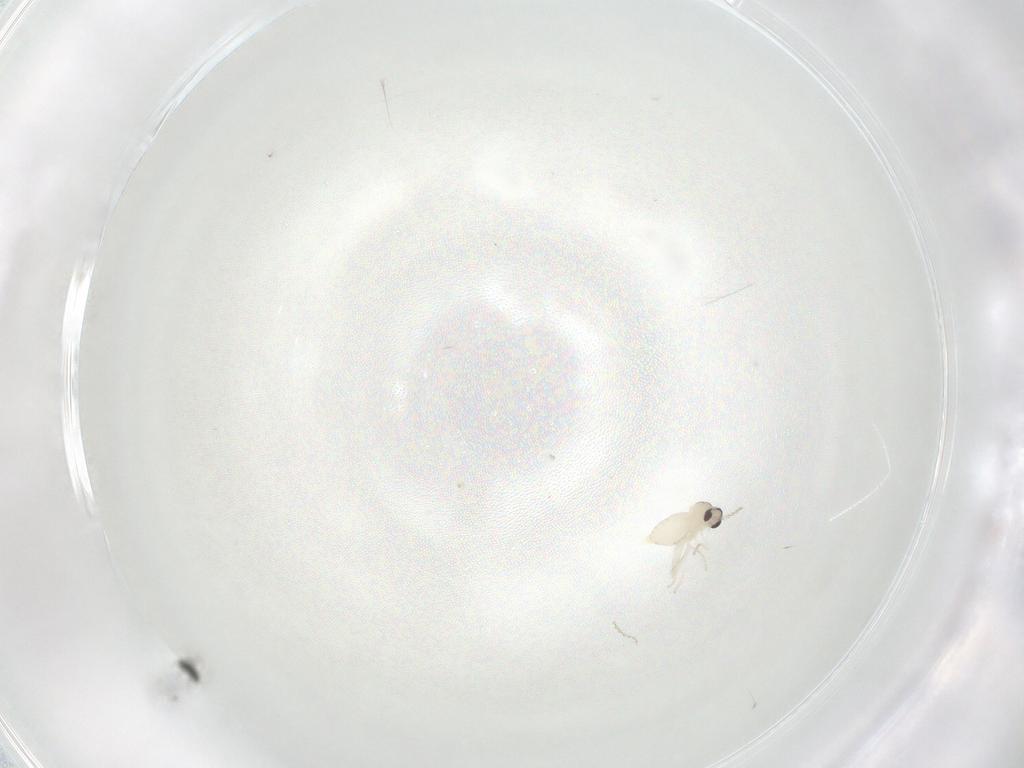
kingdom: Animalia
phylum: Arthropoda
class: Insecta
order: Diptera
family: Cecidomyiidae
